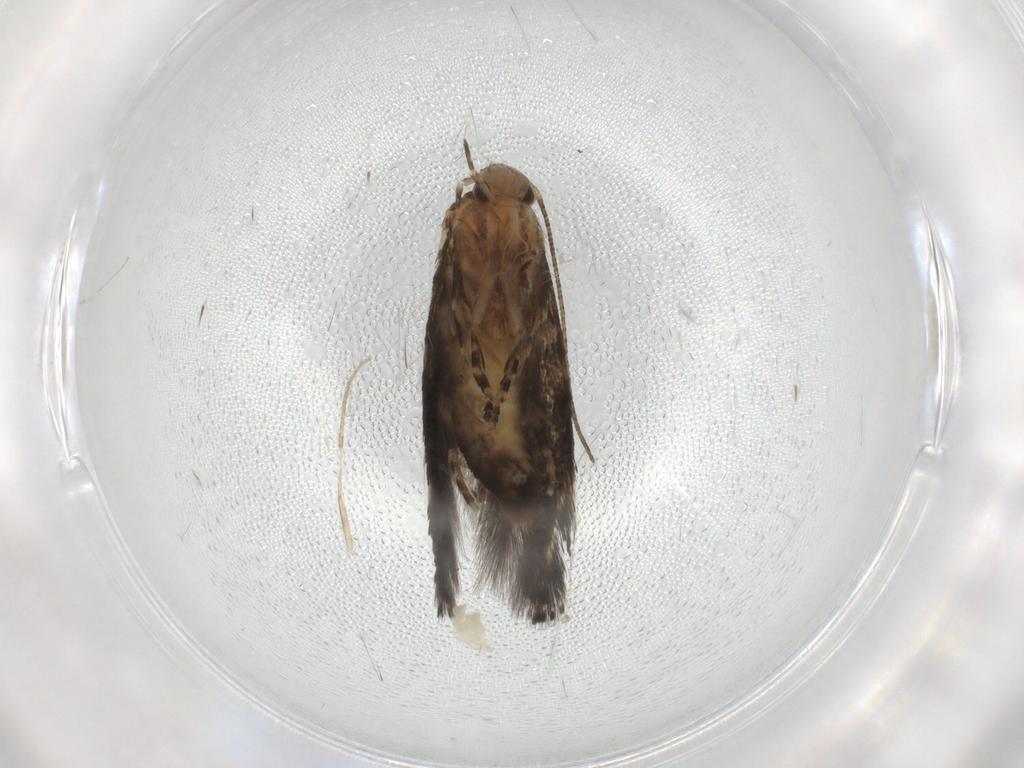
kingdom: Animalia
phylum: Arthropoda
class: Insecta
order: Lepidoptera
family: Elachistidae
